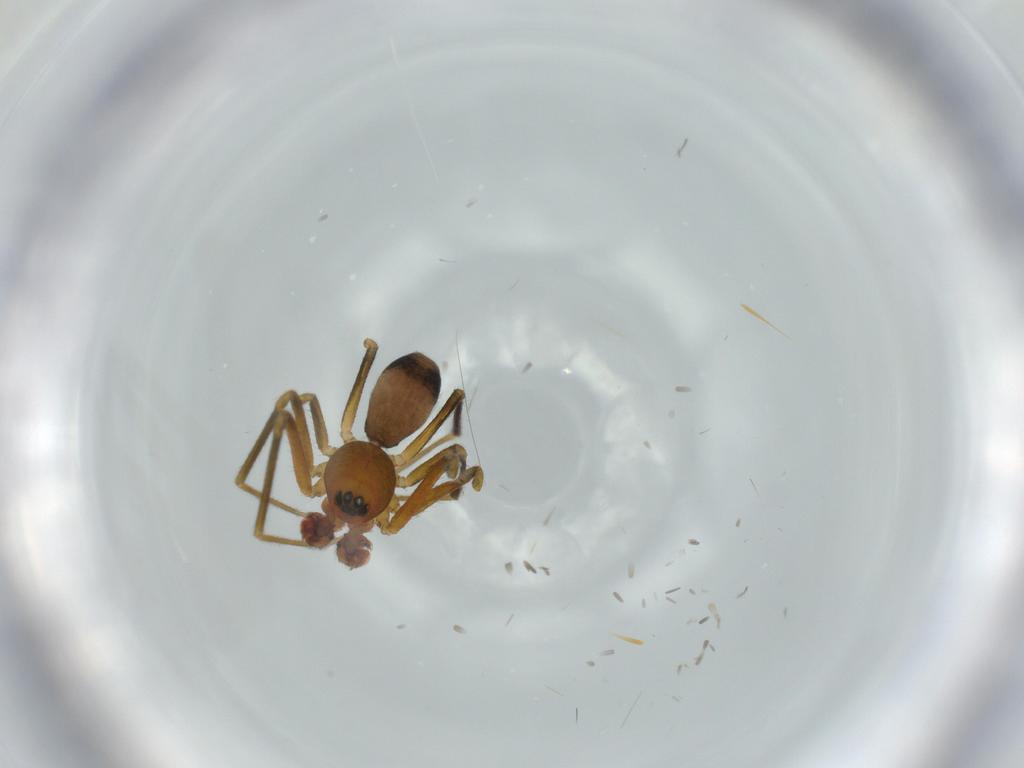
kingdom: Animalia
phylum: Arthropoda
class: Arachnida
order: Araneae
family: Linyphiidae
